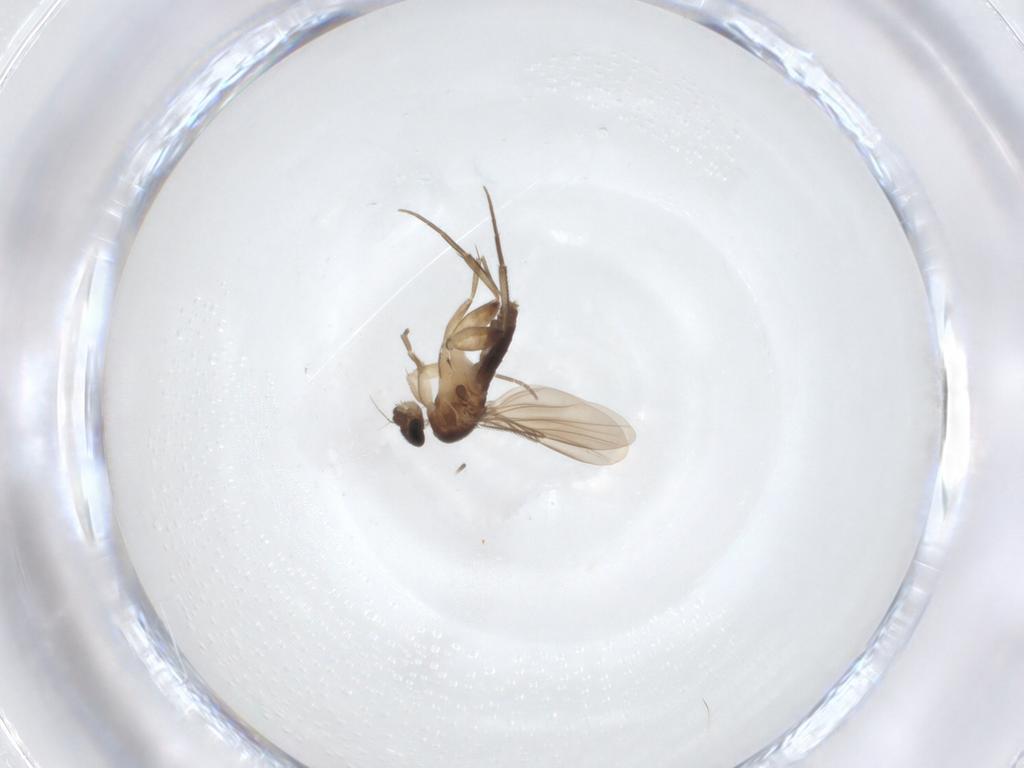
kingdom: Animalia
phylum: Arthropoda
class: Insecta
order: Diptera
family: Phoridae
